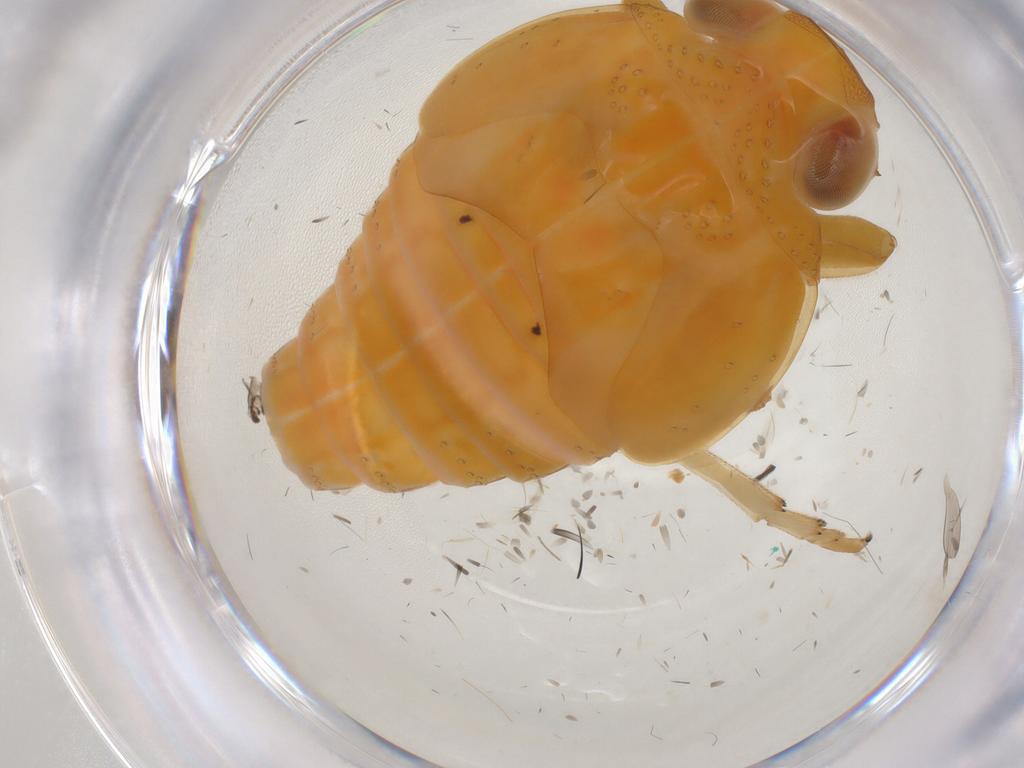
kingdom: Animalia
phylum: Arthropoda
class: Insecta
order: Hemiptera
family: Issidae
